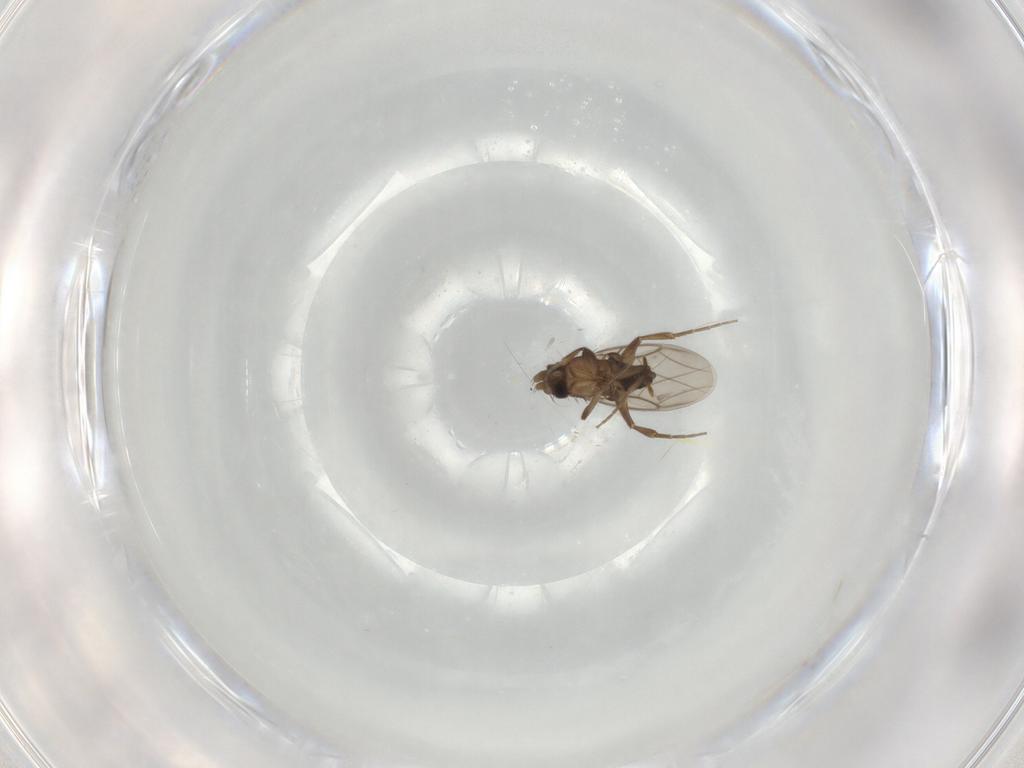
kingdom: Animalia
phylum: Arthropoda
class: Insecta
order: Diptera
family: Phoridae
